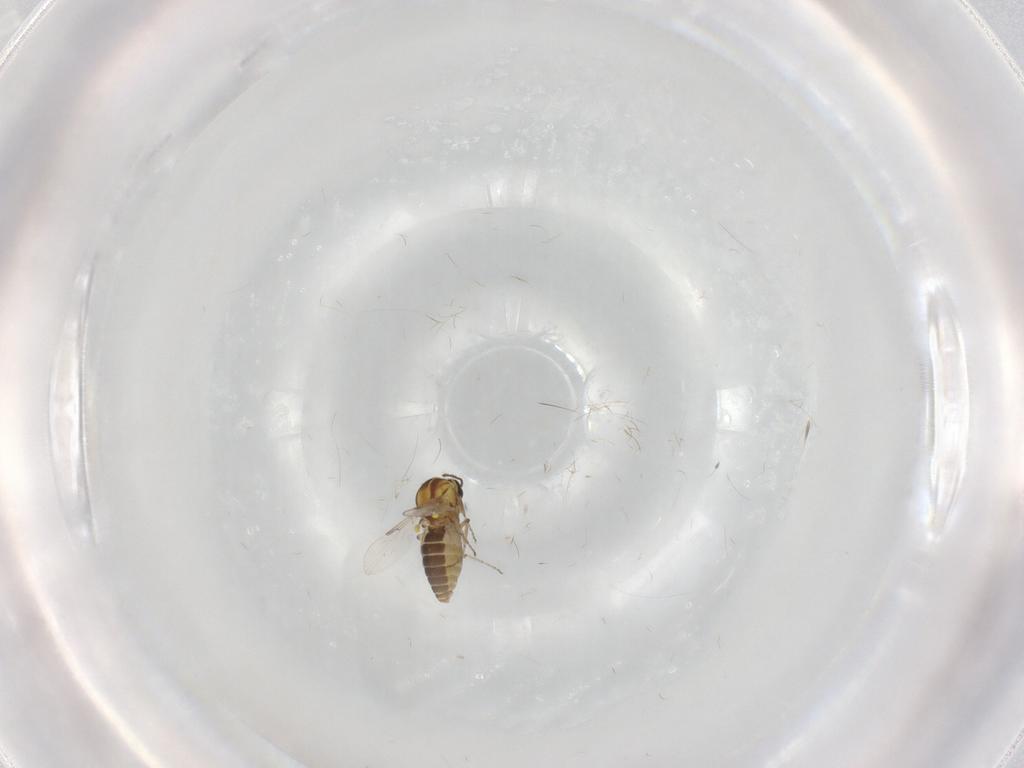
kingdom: Animalia
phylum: Arthropoda
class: Insecta
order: Diptera
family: Ceratopogonidae
